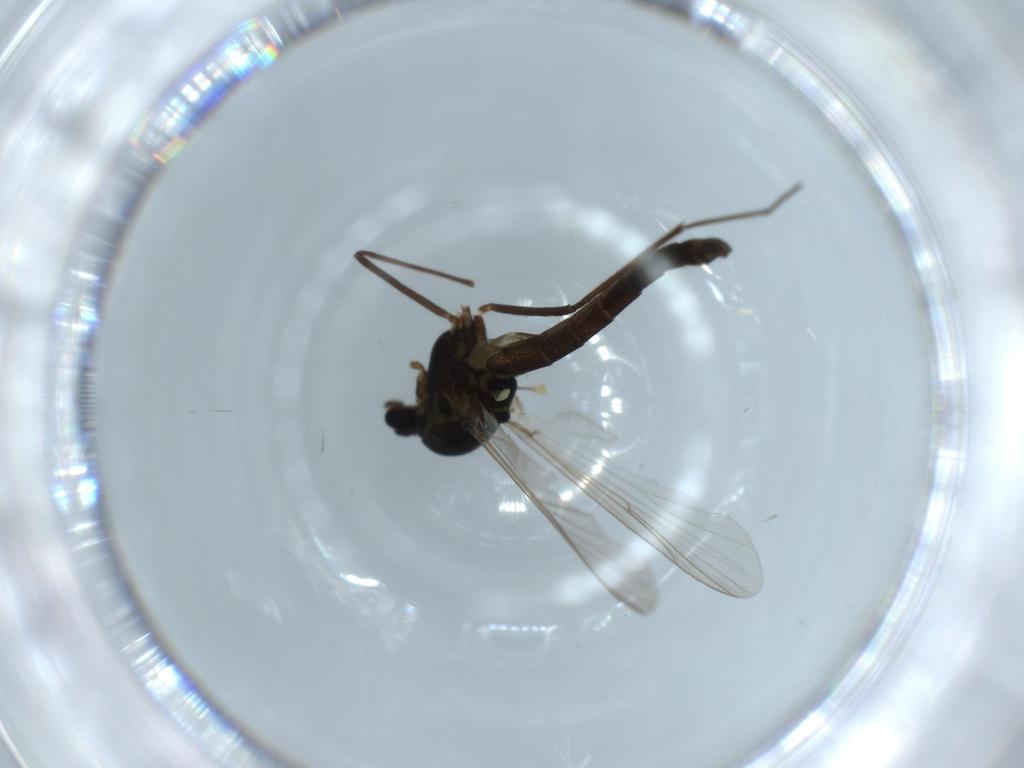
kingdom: Animalia
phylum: Arthropoda
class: Insecta
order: Diptera
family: Chironomidae
